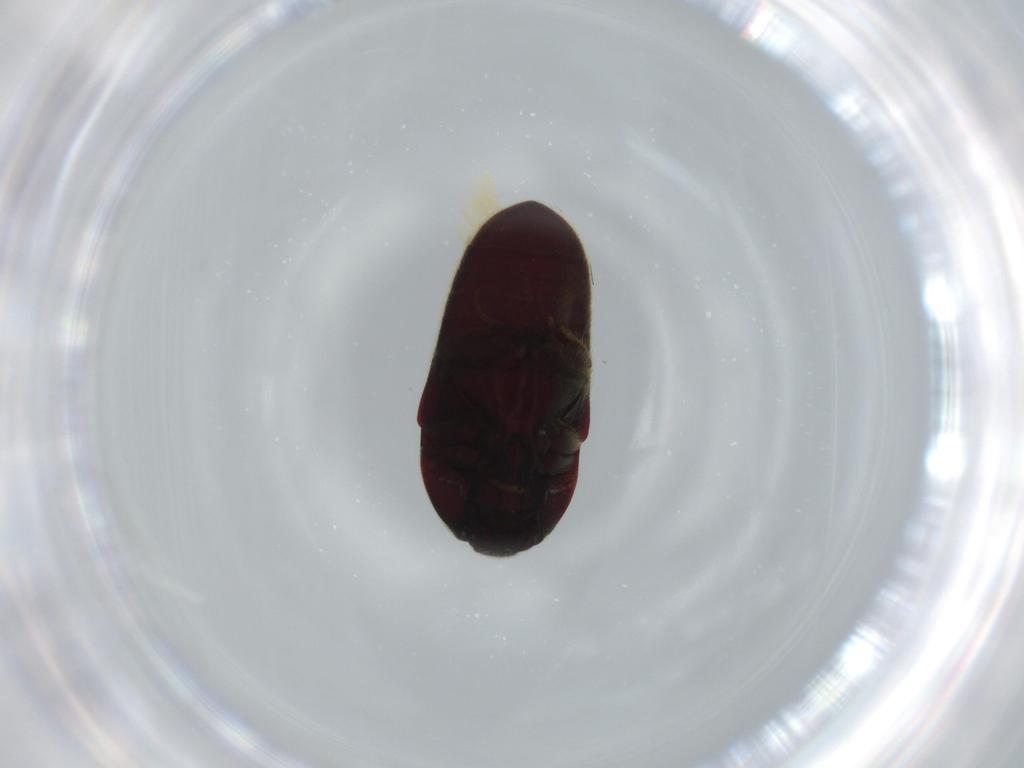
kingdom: Animalia
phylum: Arthropoda
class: Insecta
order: Coleoptera
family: Throscidae
